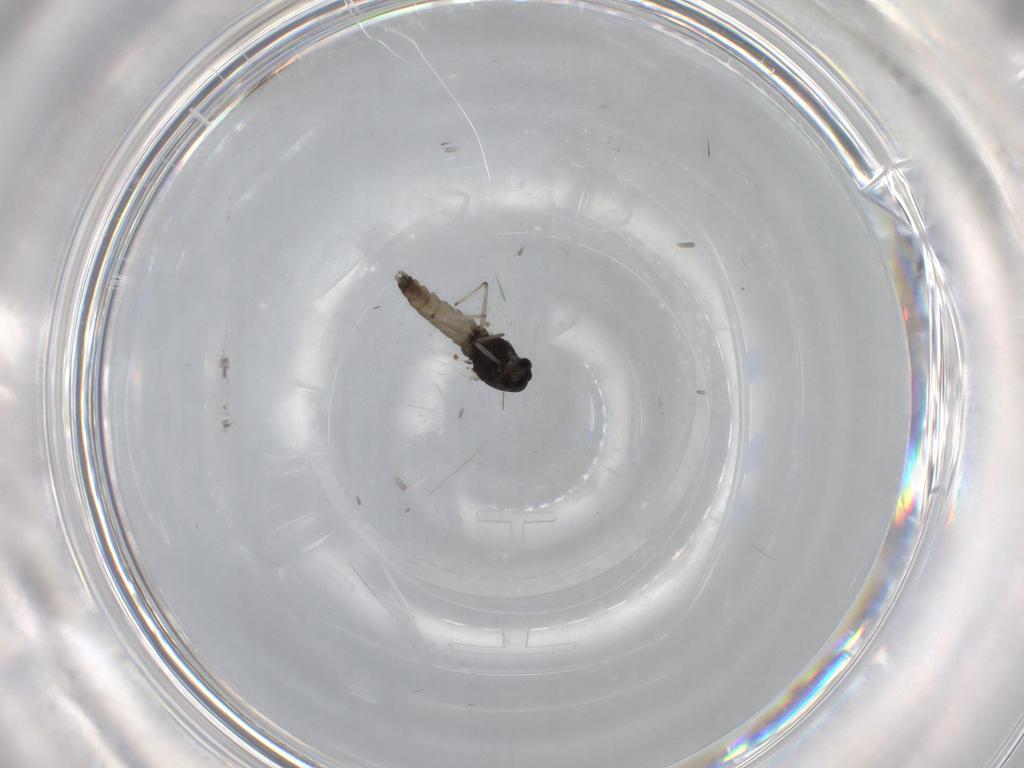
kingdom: Animalia
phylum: Arthropoda
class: Insecta
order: Diptera
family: Chironomidae
